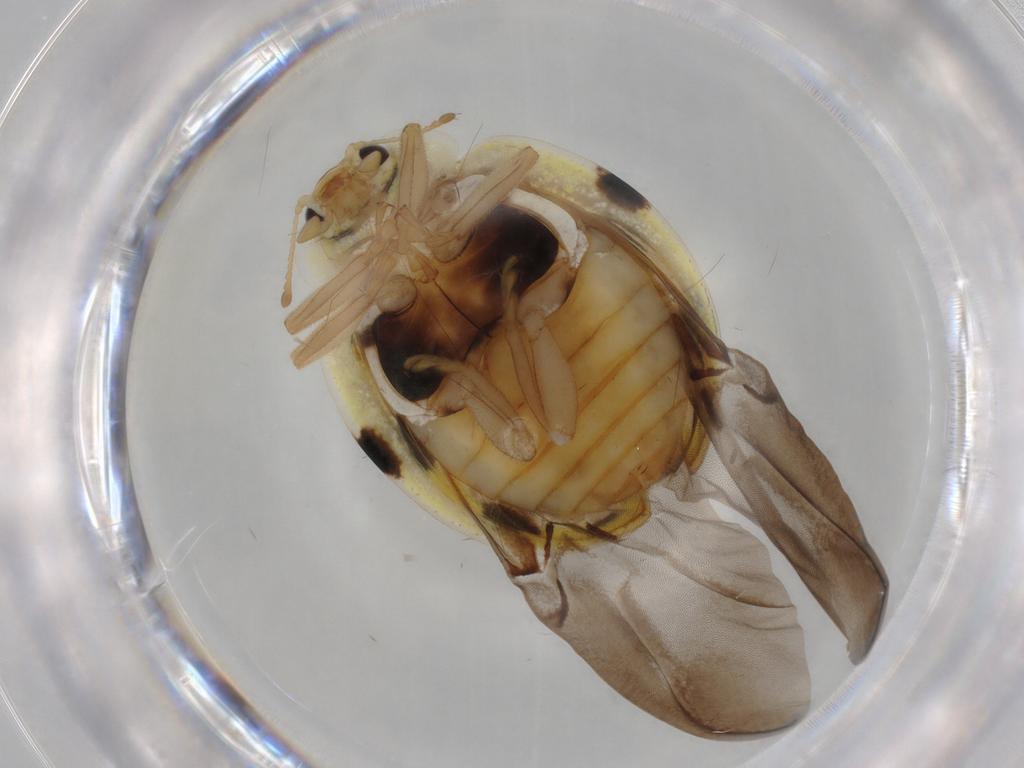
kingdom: Animalia
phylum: Arthropoda
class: Insecta
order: Coleoptera
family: Coccinellidae
